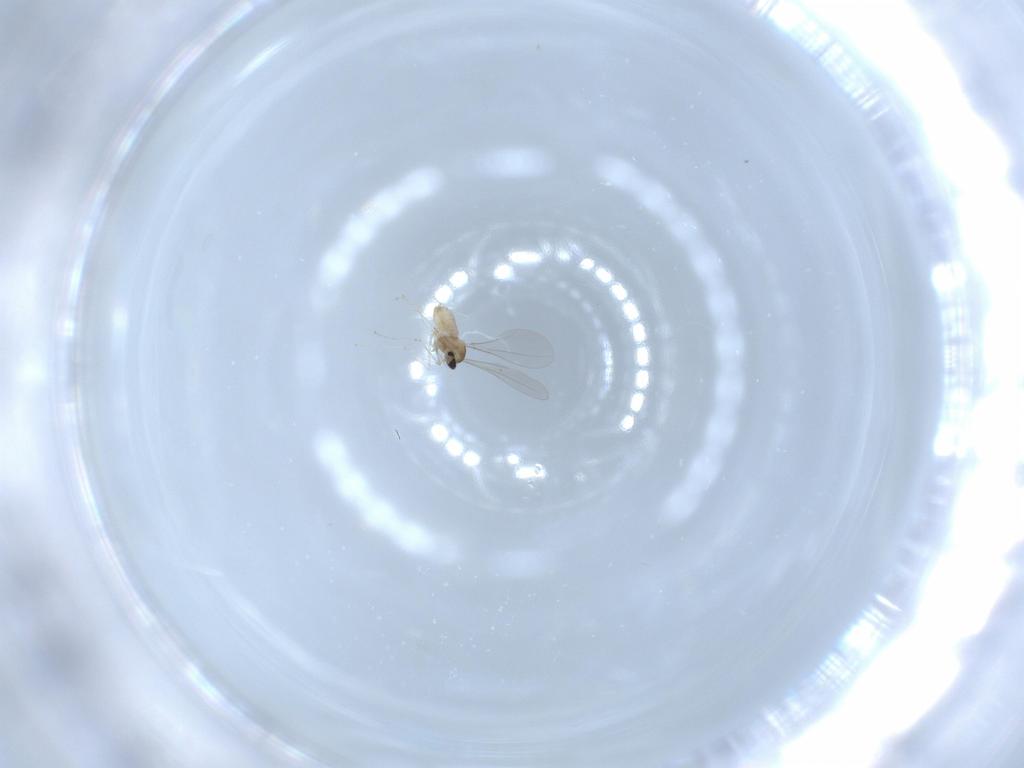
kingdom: Animalia
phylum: Arthropoda
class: Insecta
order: Diptera
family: Cecidomyiidae
